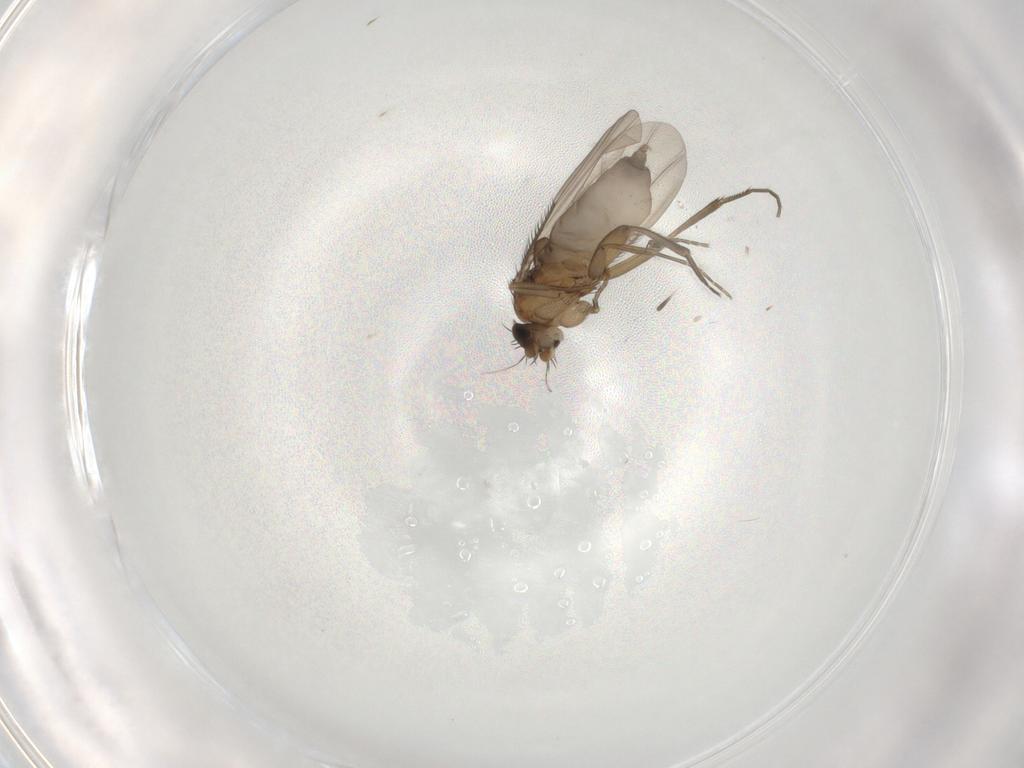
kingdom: Animalia
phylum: Arthropoda
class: Insecta
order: Diptera
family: Phoridae
